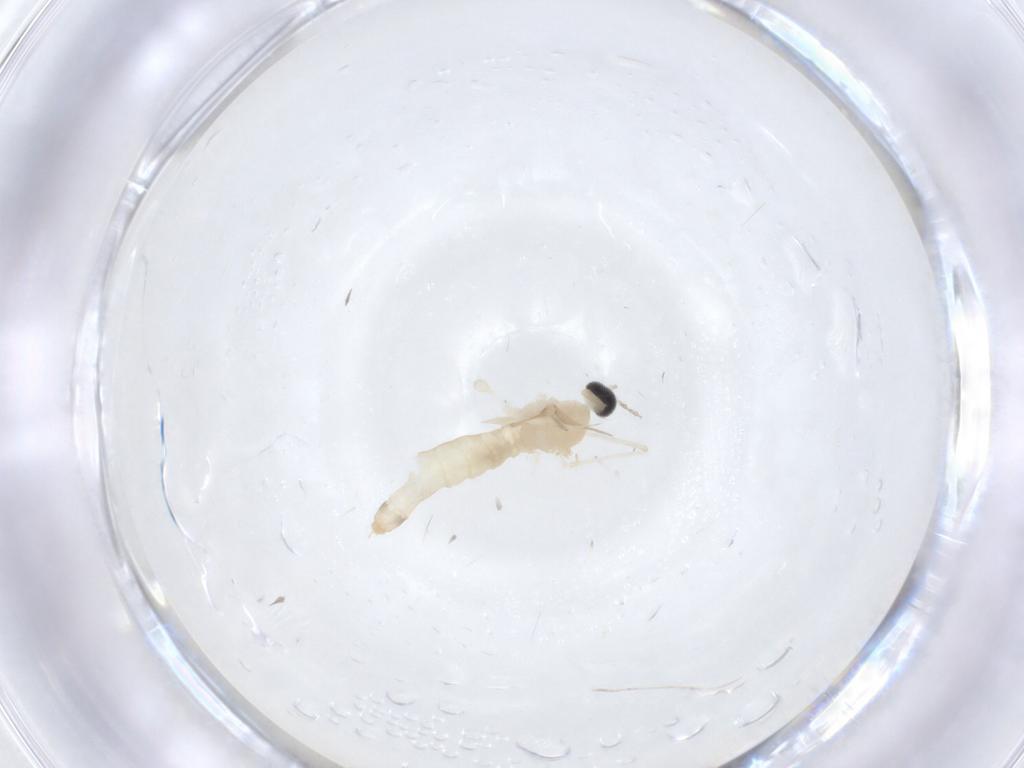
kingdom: Animalia
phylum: Arthropoda
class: Insecta
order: Diptera
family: Cecidomyiidae
